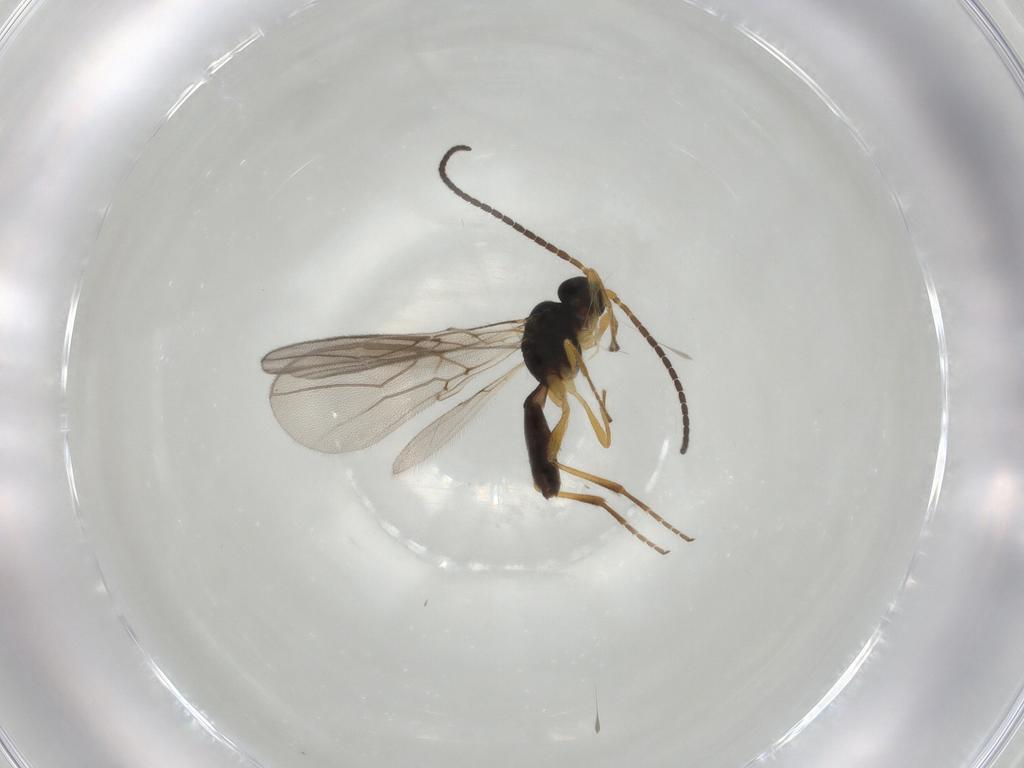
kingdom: Animalia
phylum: Arthropoda
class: Insecta
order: Hymenoptera
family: Braconidae
